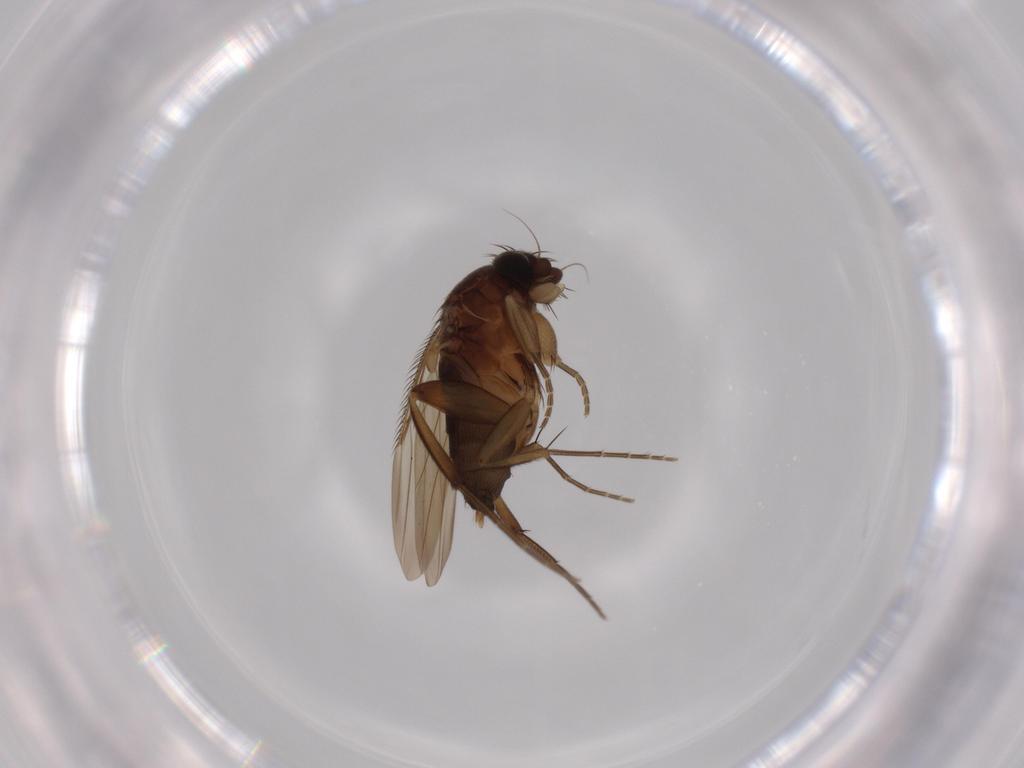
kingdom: Animalia
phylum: Arthropoda
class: Insecta
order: Diptera
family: Phoridae
